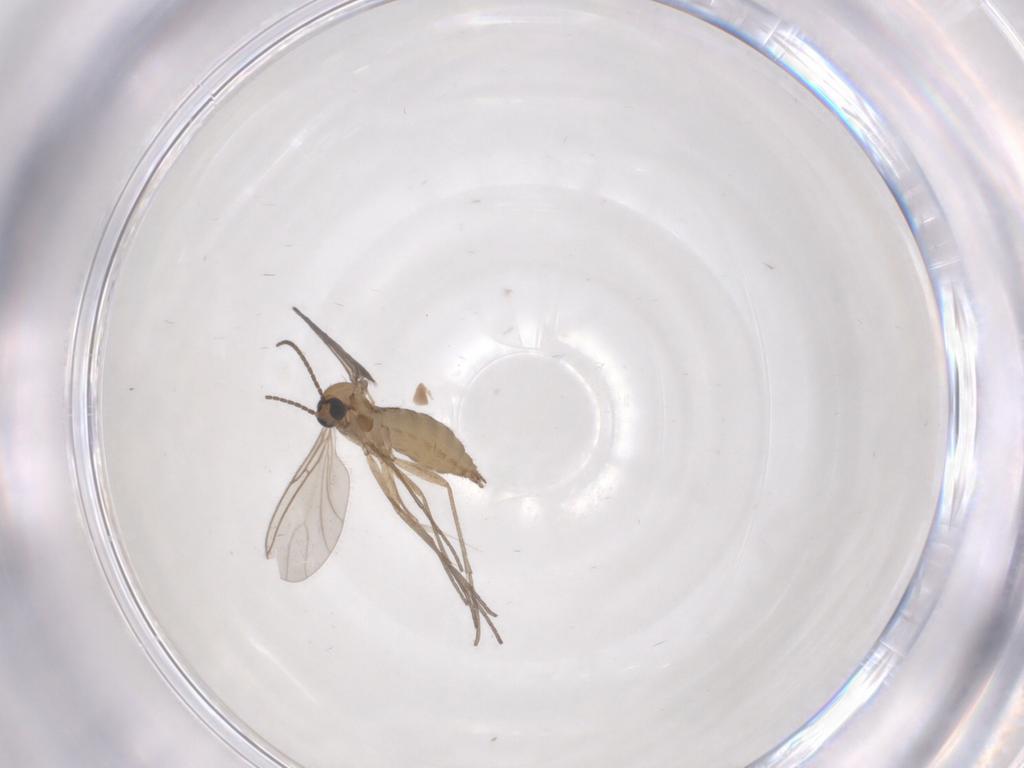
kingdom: Animalia
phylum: Arthropoda
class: Insecta
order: Diptera
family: Sciaridae
